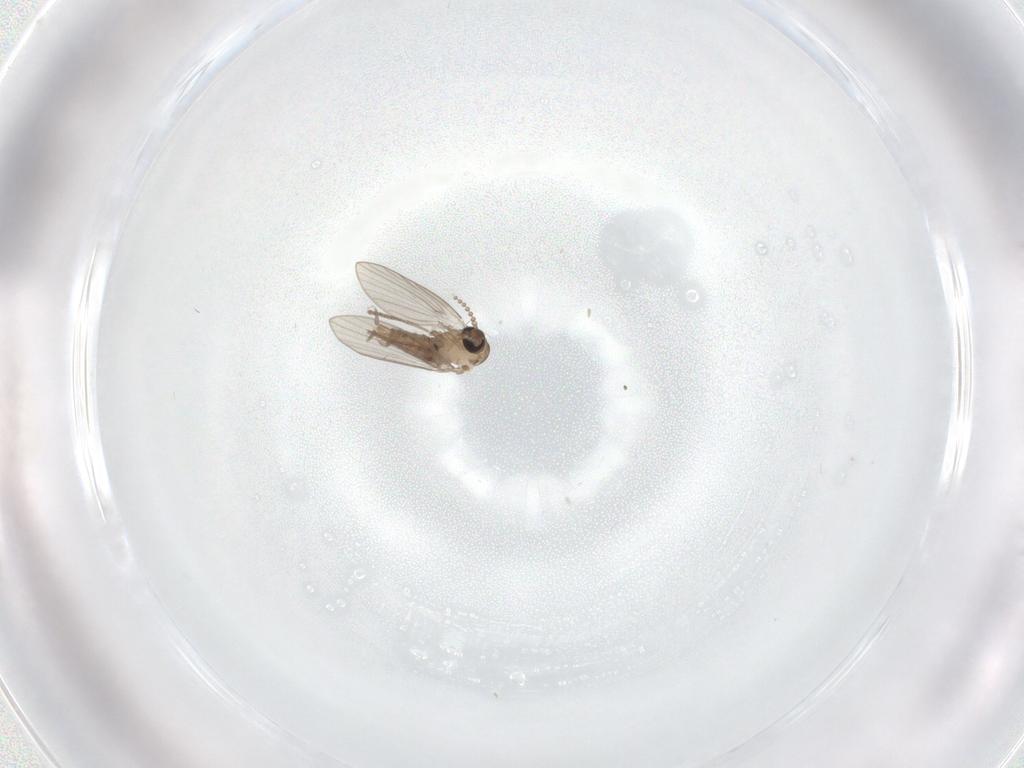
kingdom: Animalia
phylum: Arthropoda
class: Insecta
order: Diptera
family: Psychodidae
